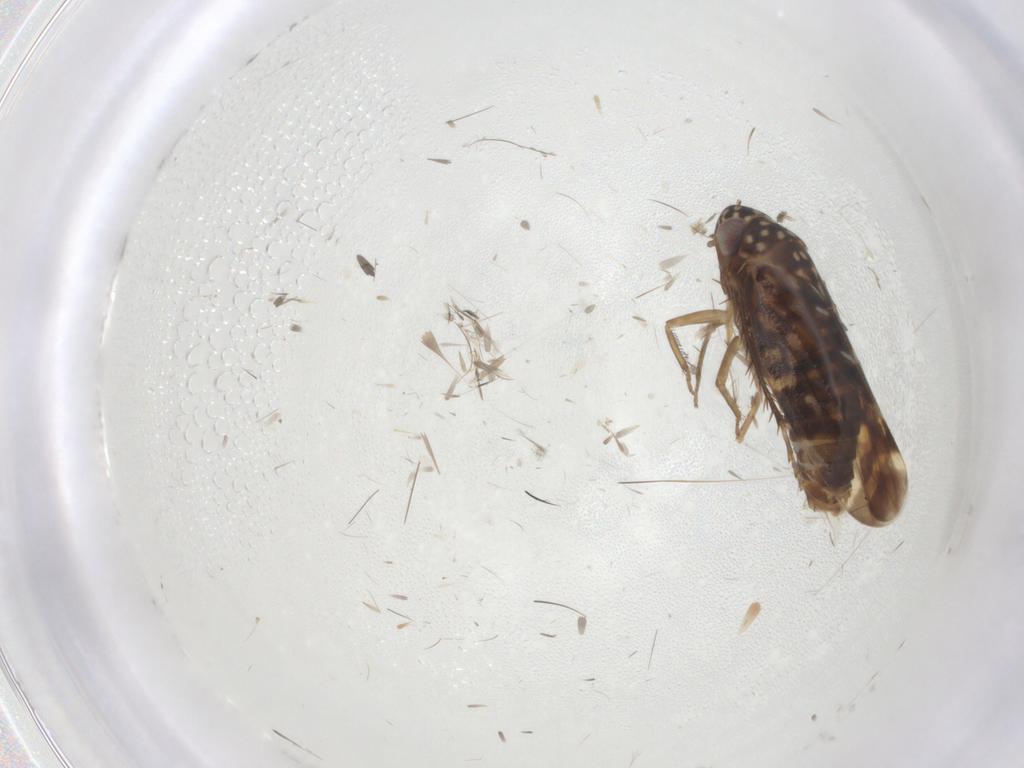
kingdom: Animalia
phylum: Arthropoda
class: Insecta
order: Hemiptera
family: Cicadellidae
